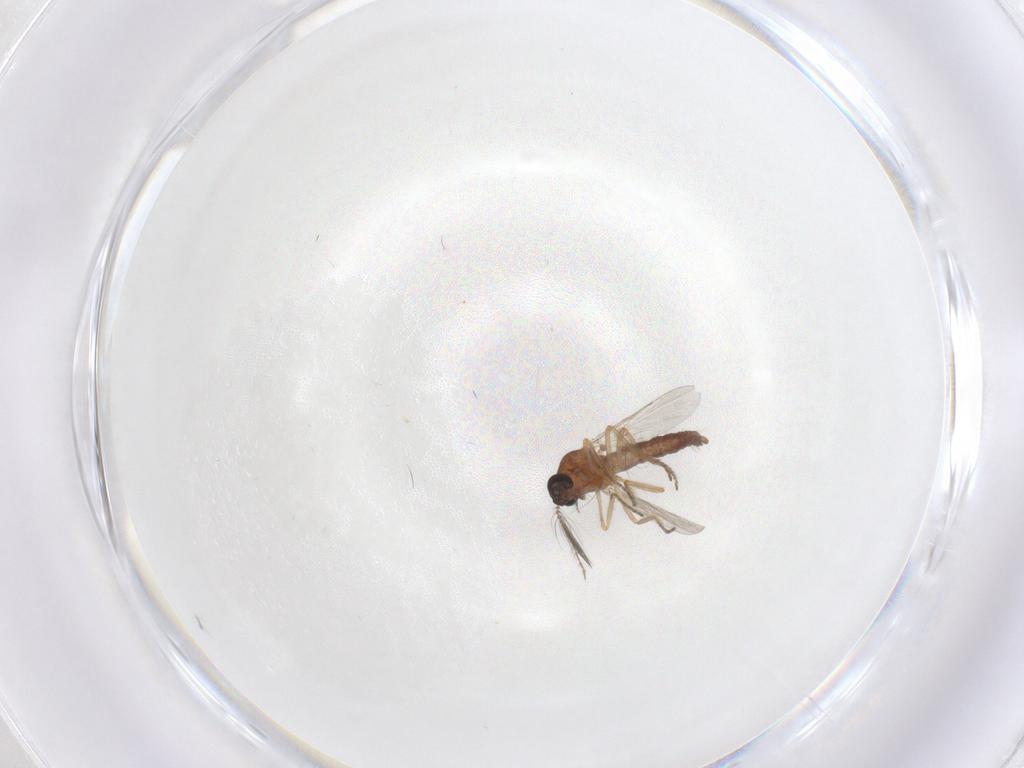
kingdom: Animalia
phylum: Arthropoda
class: Insecta
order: Diptera
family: Ceratopogonidae
